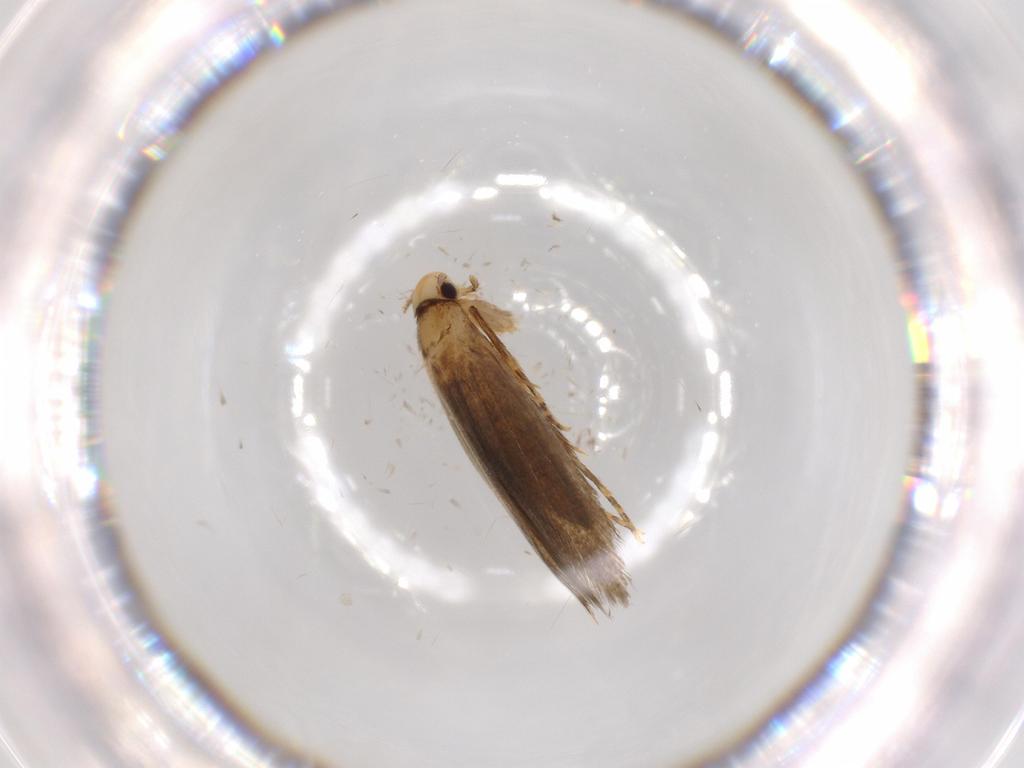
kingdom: Animalia
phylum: Arthropoda
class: Insecta
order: Lepidoptera
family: Tineidae
